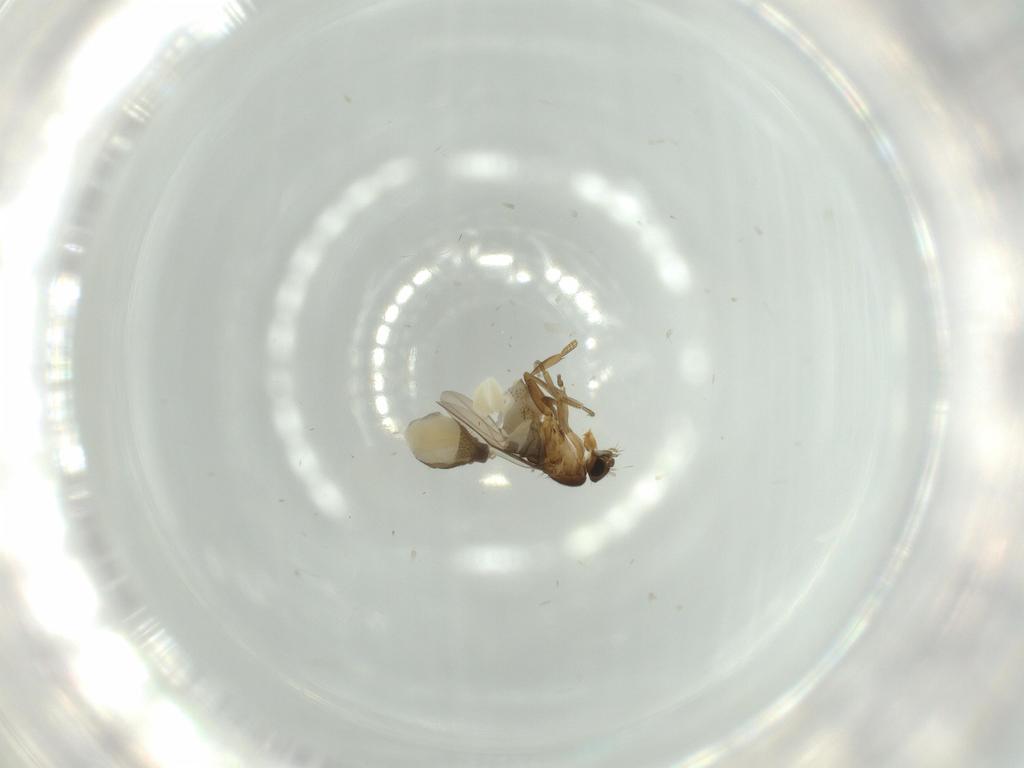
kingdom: Animalia
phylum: Arthropoda
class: Insecta
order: Diptera
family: Phoridae
